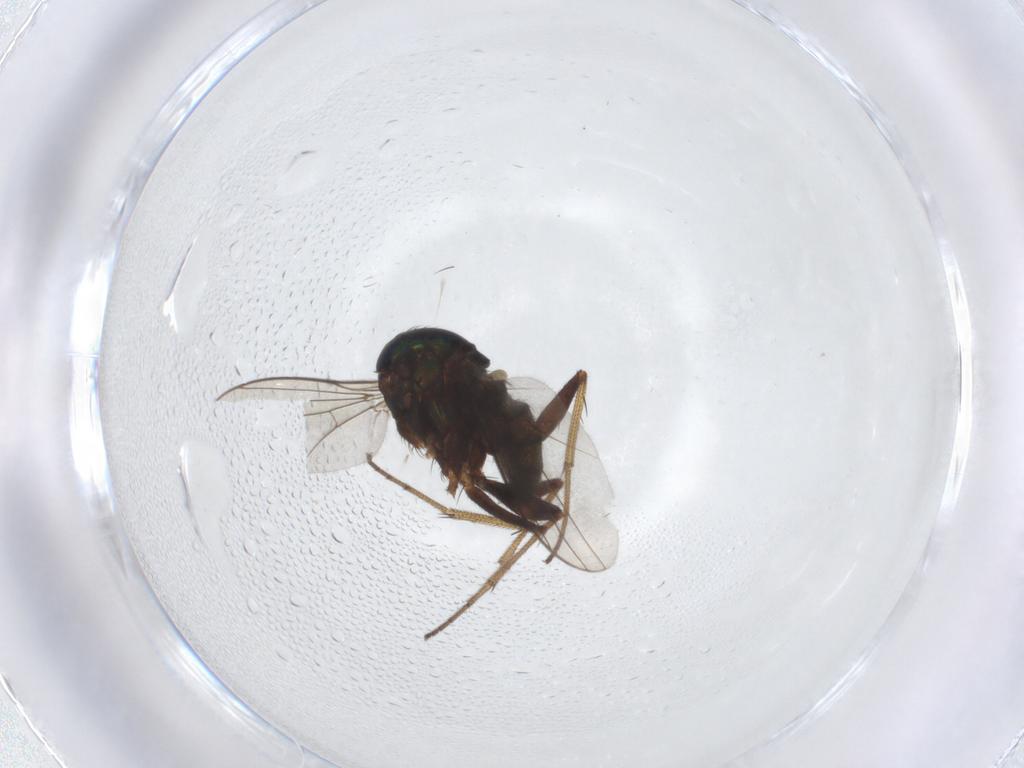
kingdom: Animalia
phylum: Arthropoda
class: Insecta
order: Diptera
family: Dolichopodidae
